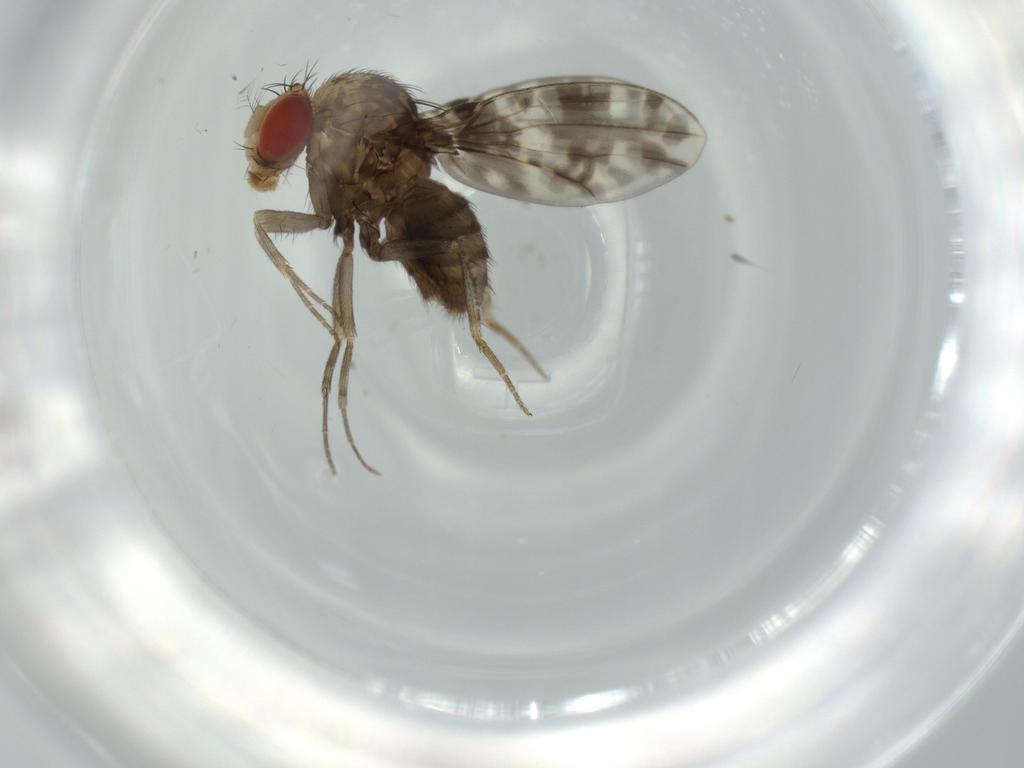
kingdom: Animalia
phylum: Arthropoda
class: Insecta
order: Diptera
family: Drosophilidae
